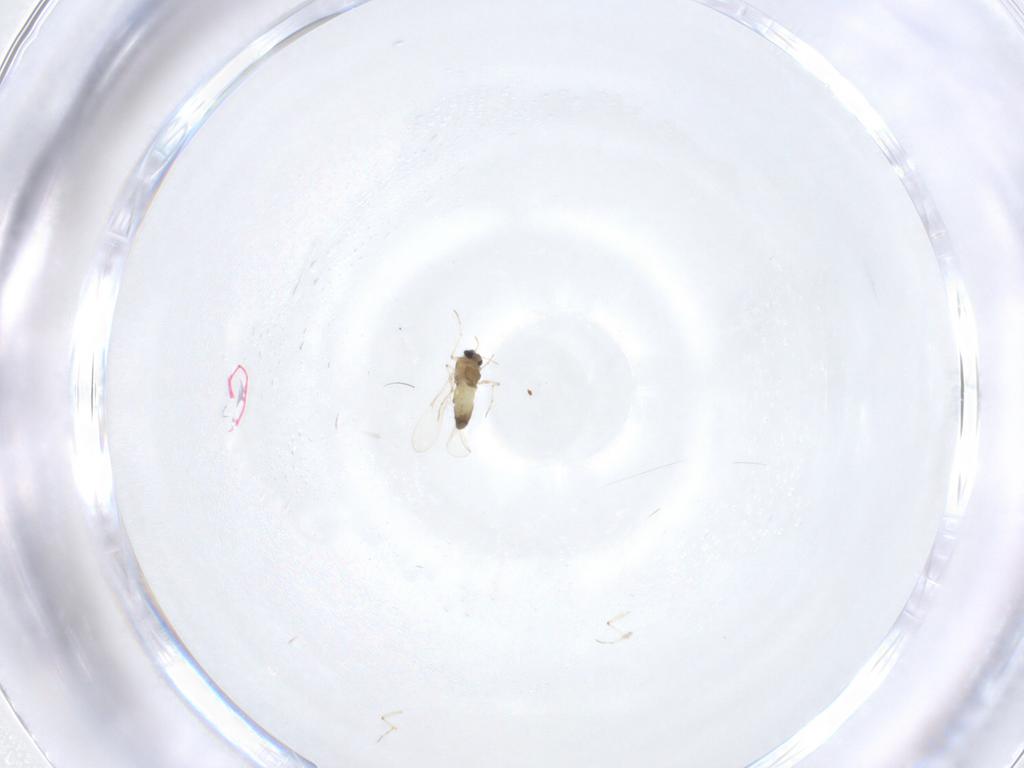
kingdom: Animalia
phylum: Arthropoda
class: Insecta
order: Diptera
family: Chironomidae
